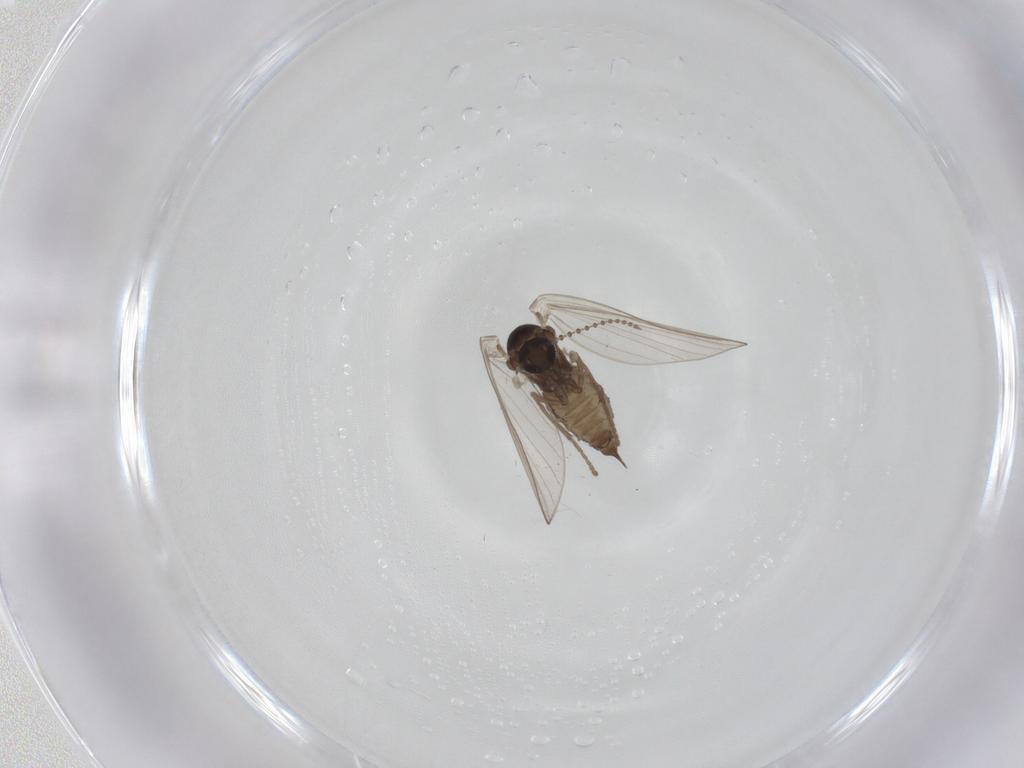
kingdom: Animalia
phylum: Arthropoda
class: Insecta
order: Diptera
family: Psychodidae
